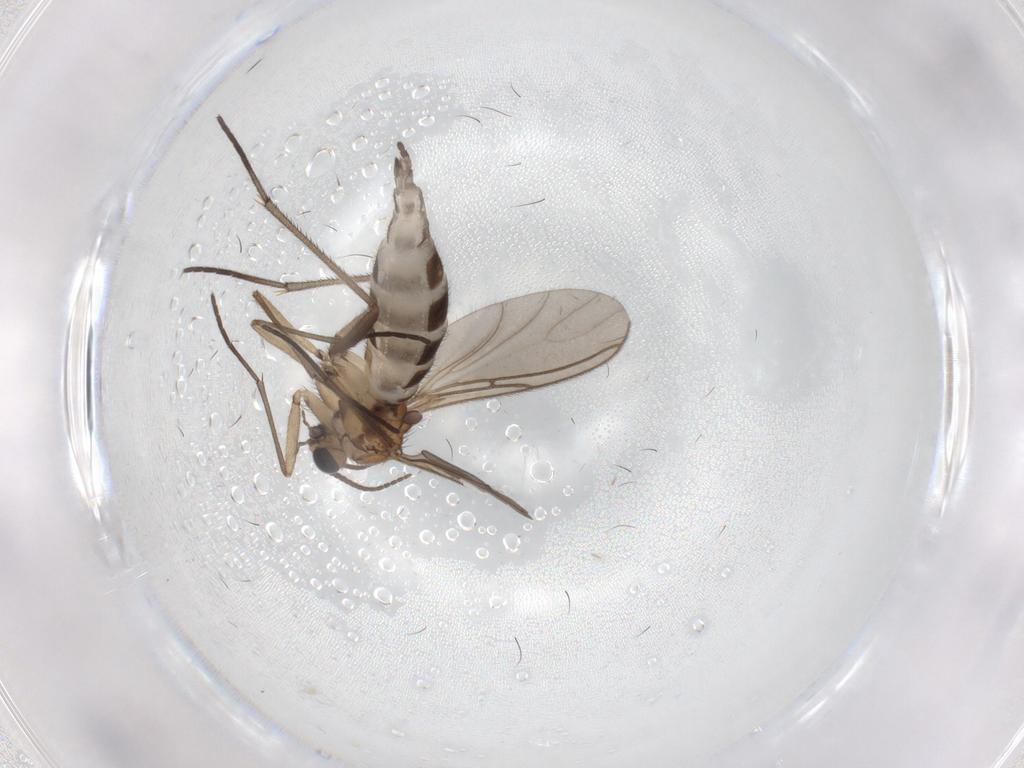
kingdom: Animalia
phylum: Arthropoda
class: Insecta
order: Diptera
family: Sciaridae
